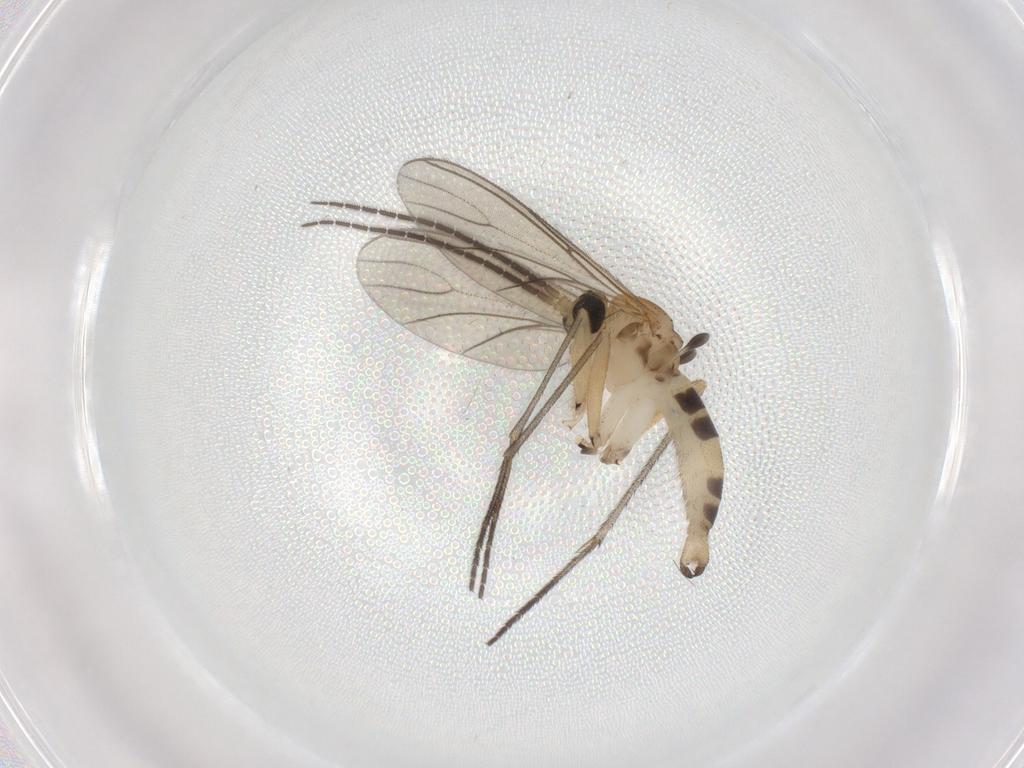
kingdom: Animalia
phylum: Arthropoda
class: Insecta
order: Diptera
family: Sciaridae
